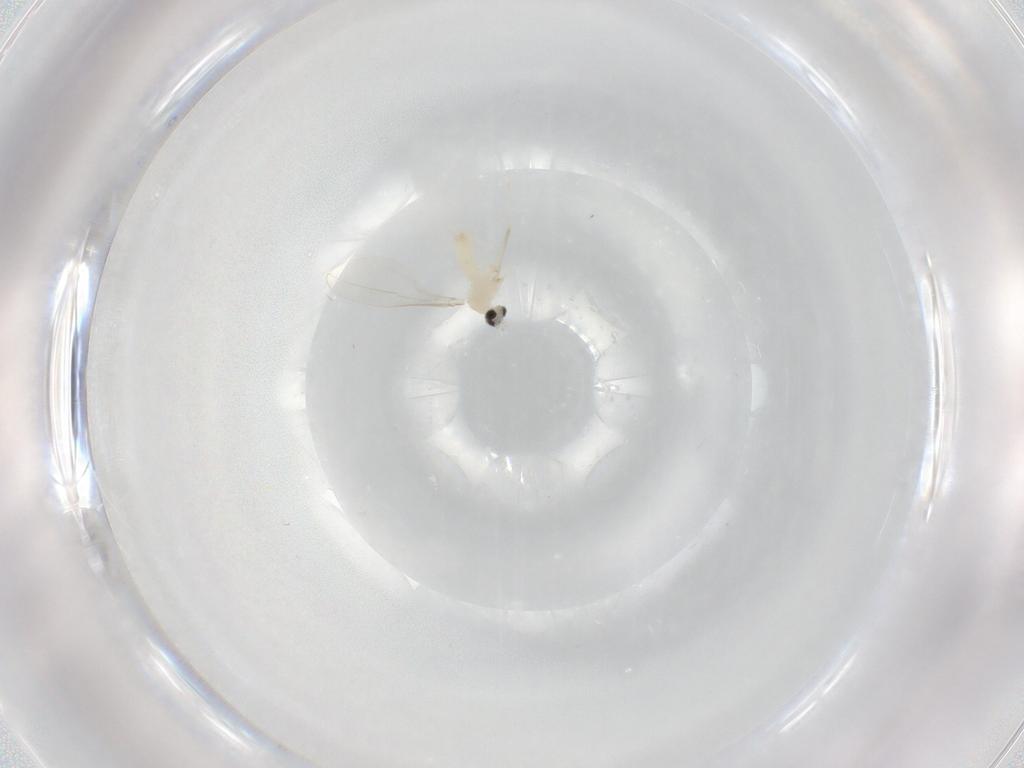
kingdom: Animalia
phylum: Arthropoda
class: Insecta
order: Diptera
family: Cecidomyiidae
